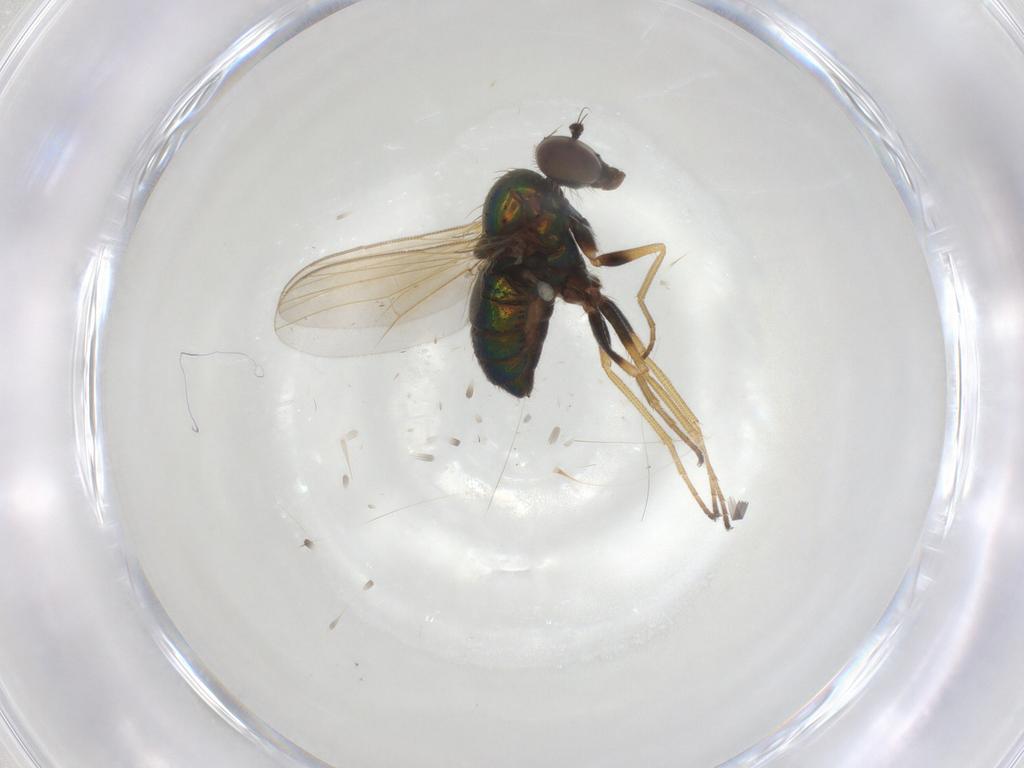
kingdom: Animalia
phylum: Arthropoda
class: Insecta
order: Diptera
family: Dolichopodidae
